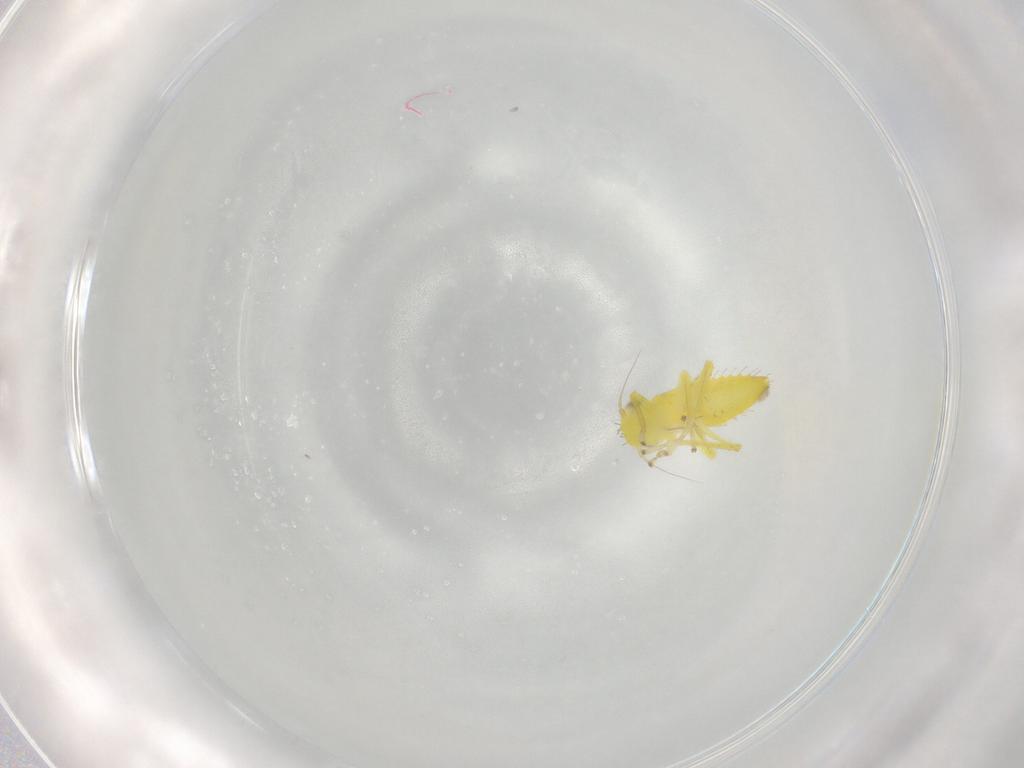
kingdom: Animalia
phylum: Arthropoda
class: Insecta
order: Hemiptera
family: Cicadellidae
